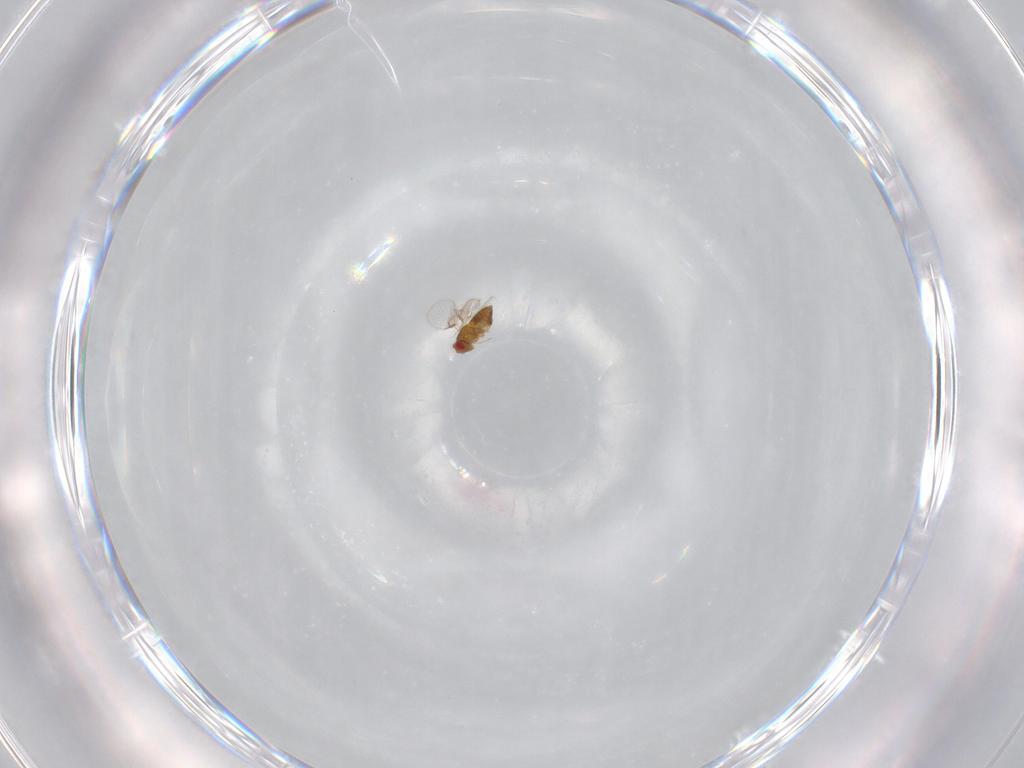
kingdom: Animalia
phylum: Arthropoda
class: Insecta
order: Hymenoptera
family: Trichogrammatidae
